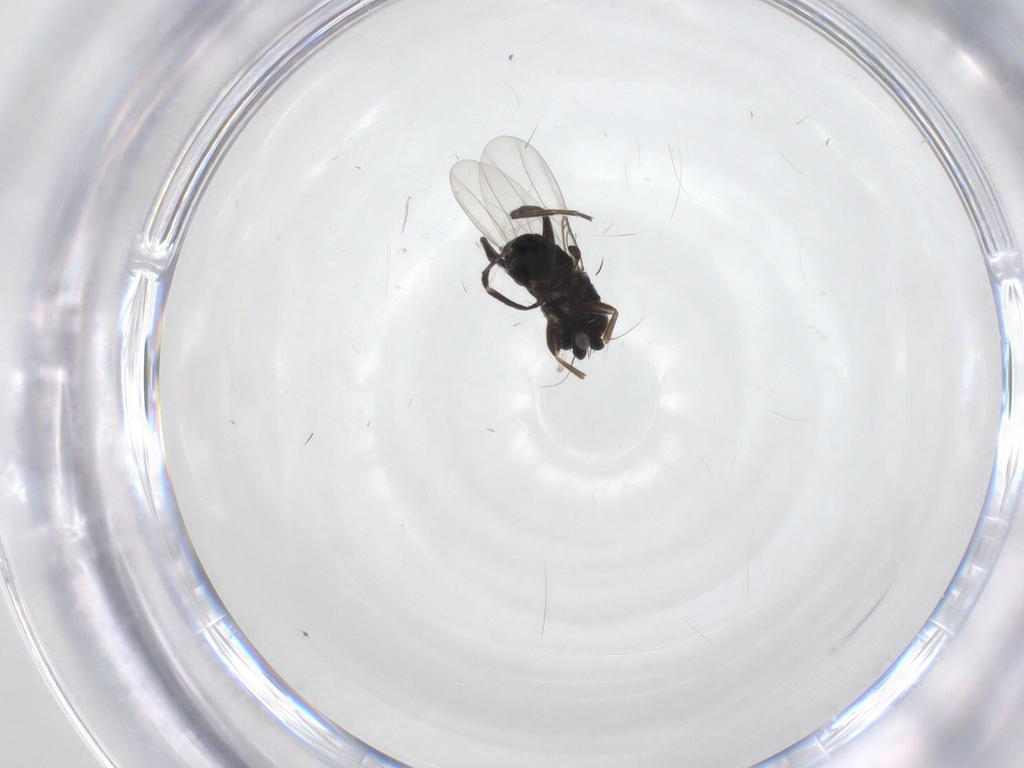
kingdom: Animalia
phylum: Arthropoda
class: Insecta
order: Diptera
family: Phoridae
